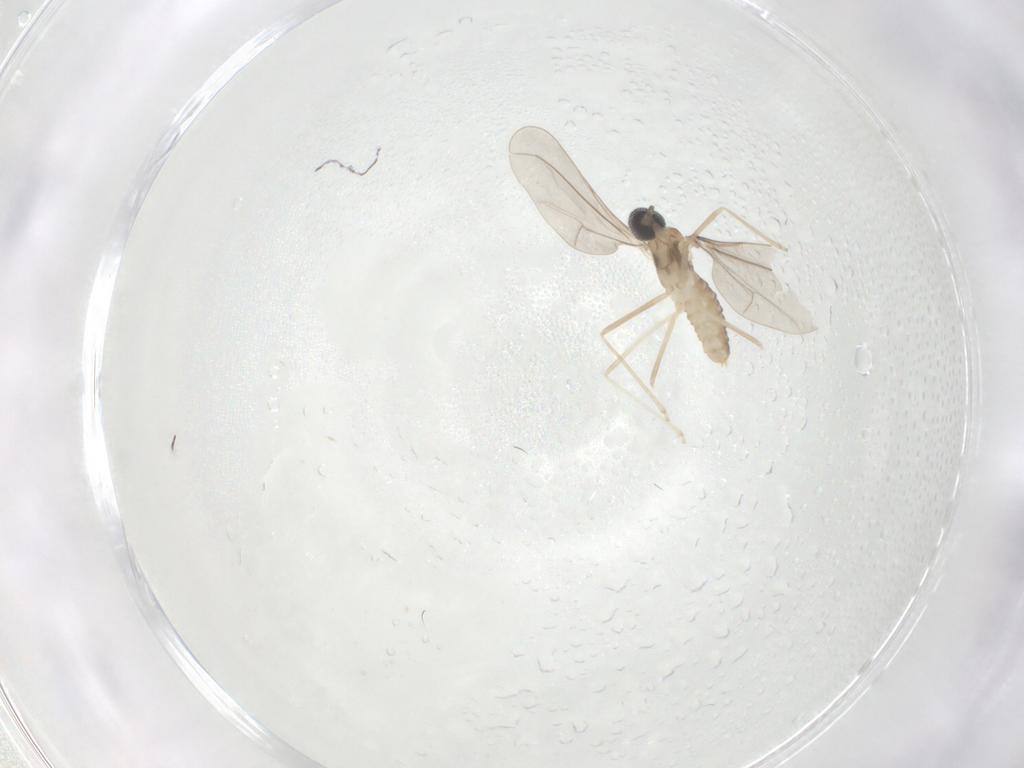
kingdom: Animalia
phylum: Arthropoda
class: Insecta
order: Diptera
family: Cecidomyiidae
